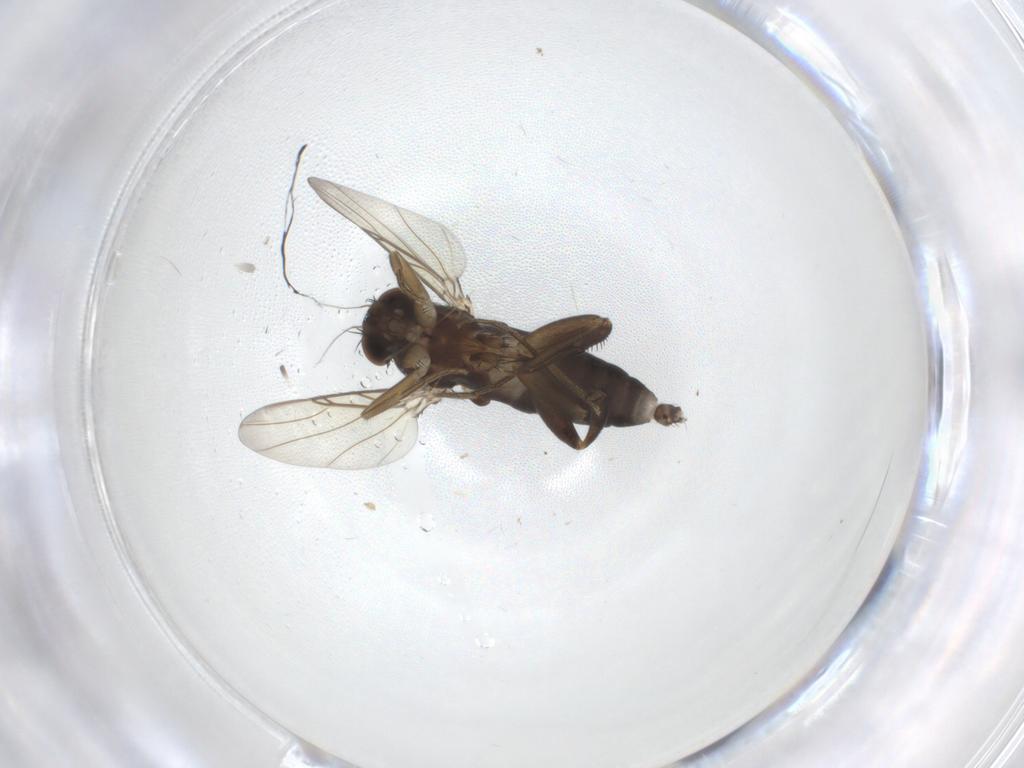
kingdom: Animalia
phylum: Arthropoda
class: Insecta
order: Diptera
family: Phoridae
